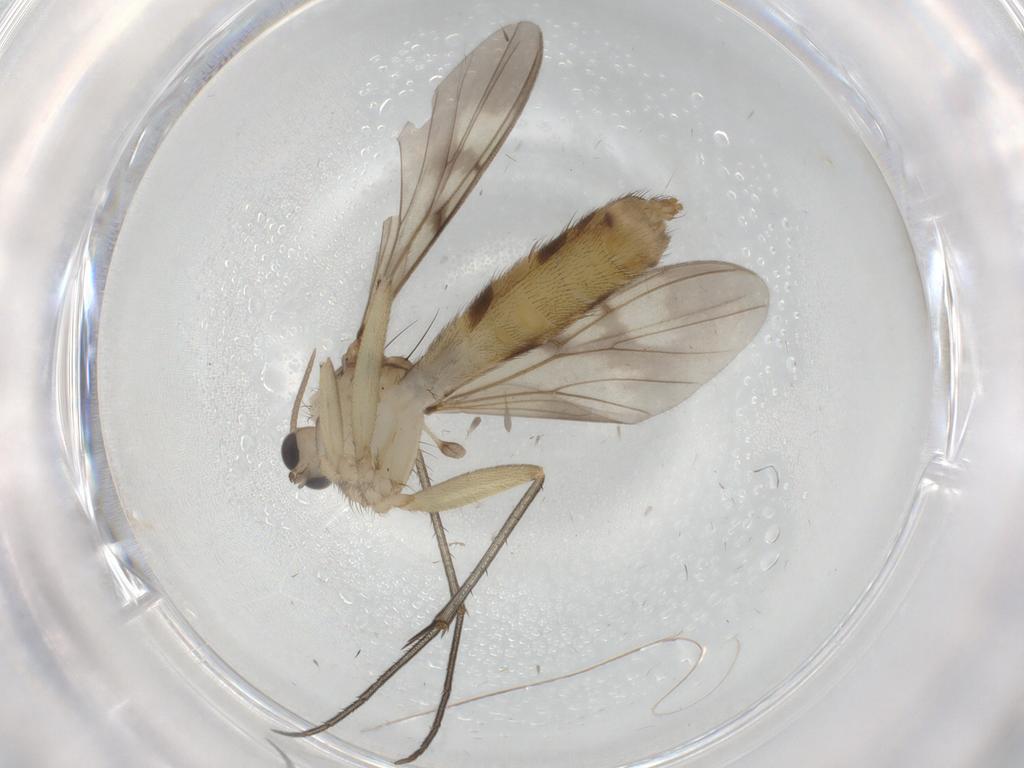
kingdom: Animalia
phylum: Arthropoda
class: Insecta
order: Diptera
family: Mycetophilidae
